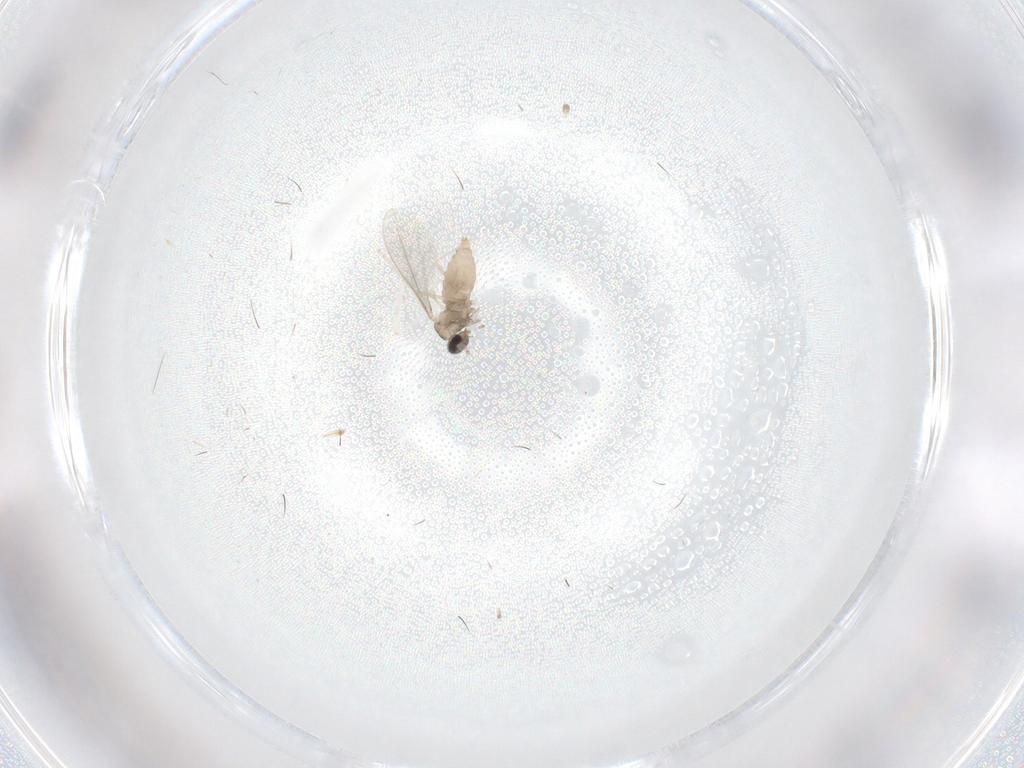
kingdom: Animalia
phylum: Arthropoda
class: Insecta
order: Diptera
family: Cecidomyiidae
